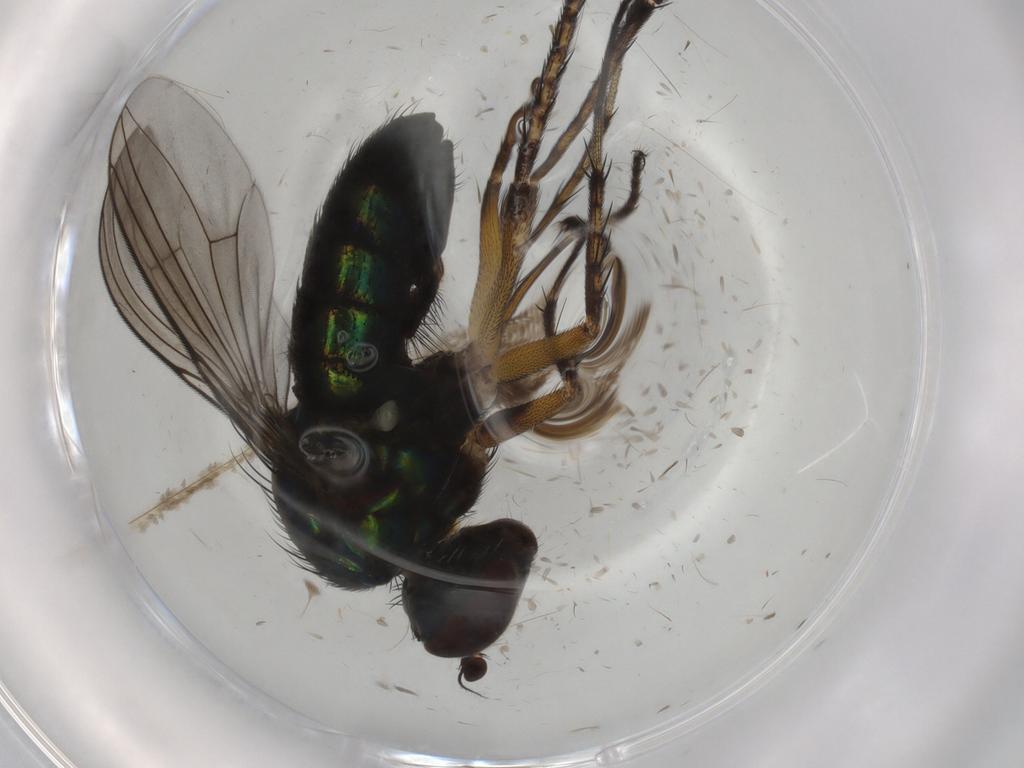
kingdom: Animalia
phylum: Arthropoda
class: Insecta
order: Diptera
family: Dolichopodidae
